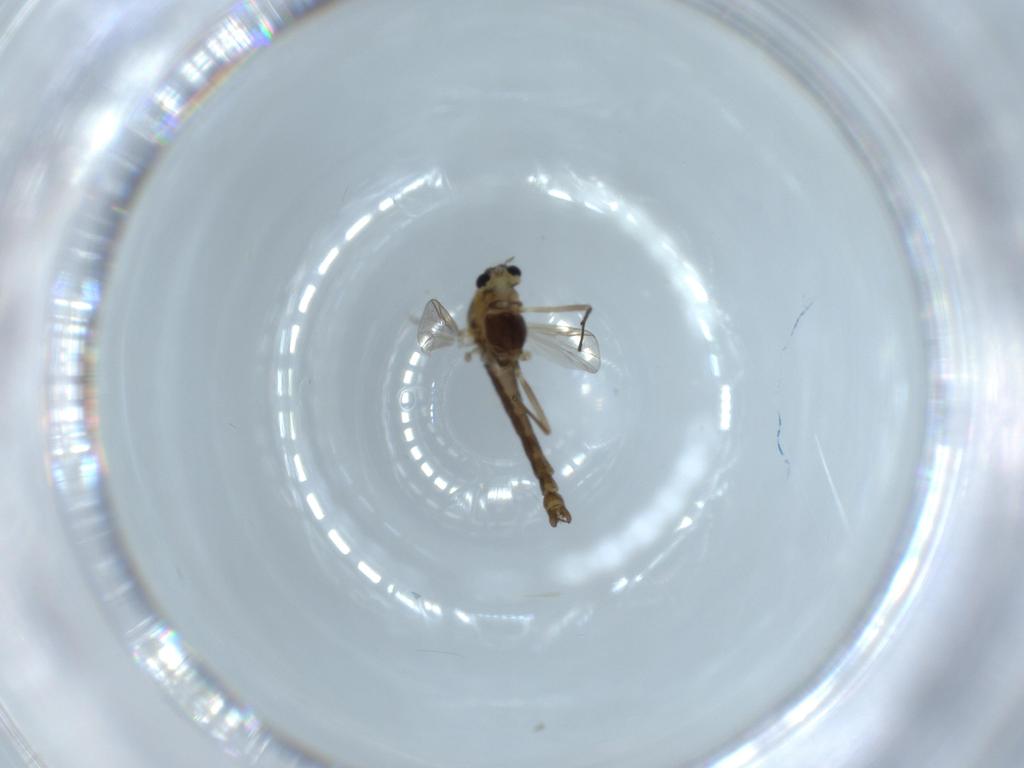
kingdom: Animalia
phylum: Arthropoda
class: Insecta
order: Diptera
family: Chironomidae
